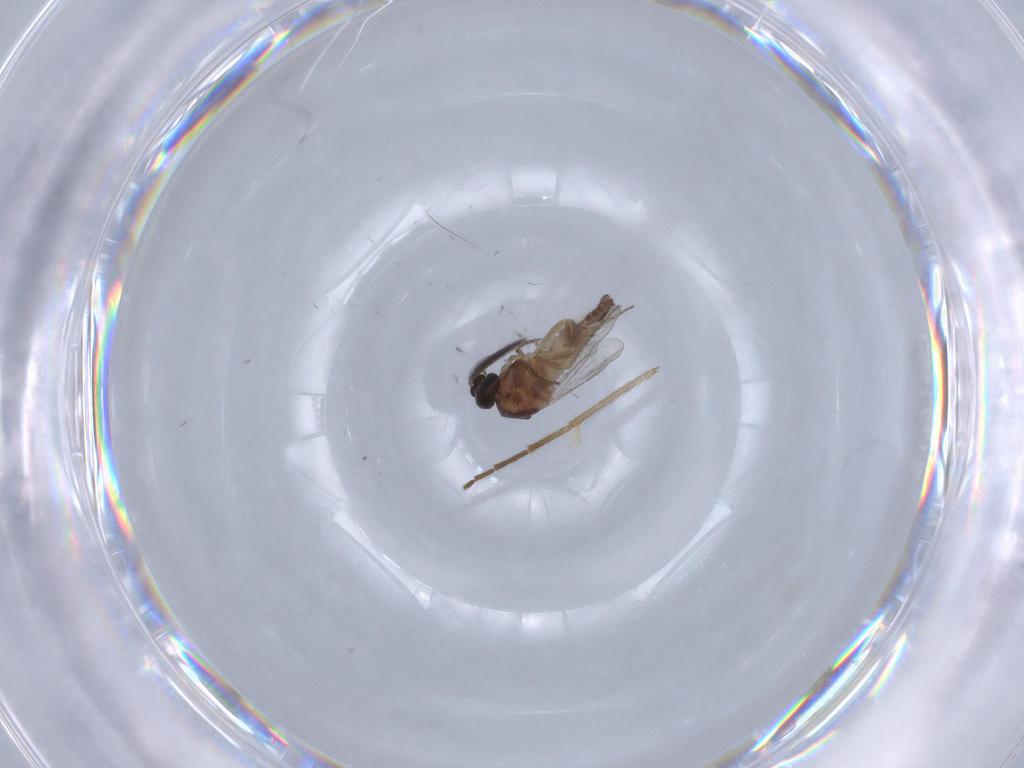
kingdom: Animalia
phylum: Arthropoda
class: Insecta
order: Diptera
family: Ceratopogonidae
